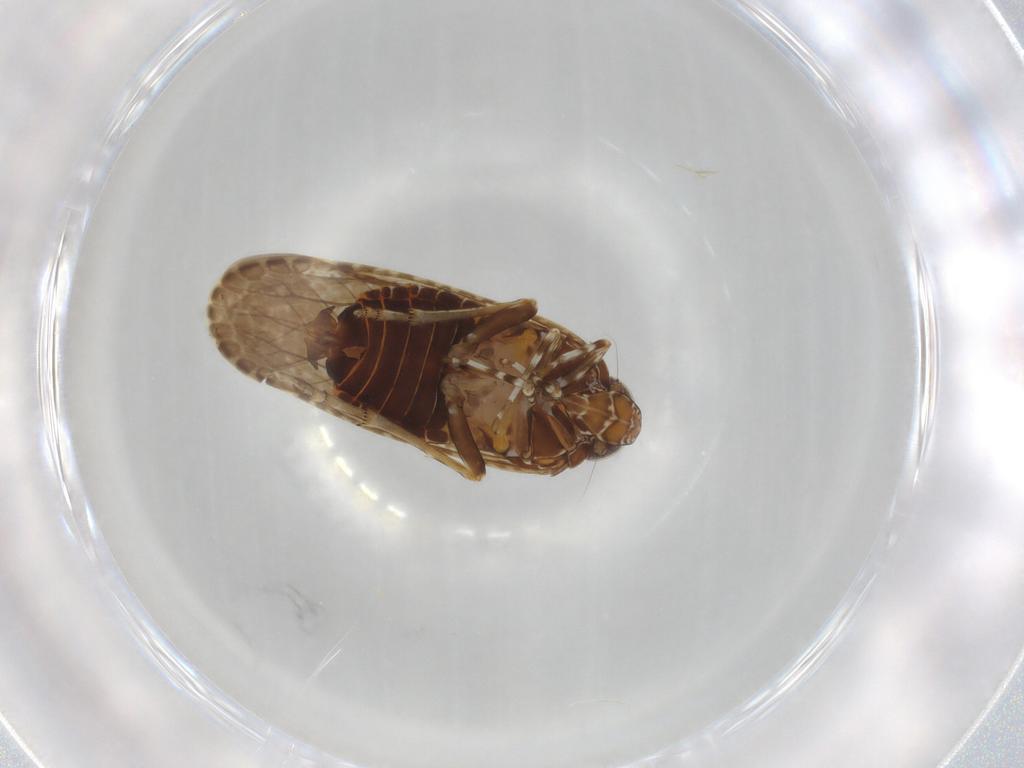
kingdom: Animalia
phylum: Arthropoda
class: Insecta
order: Hemiptera
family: Achilidae
